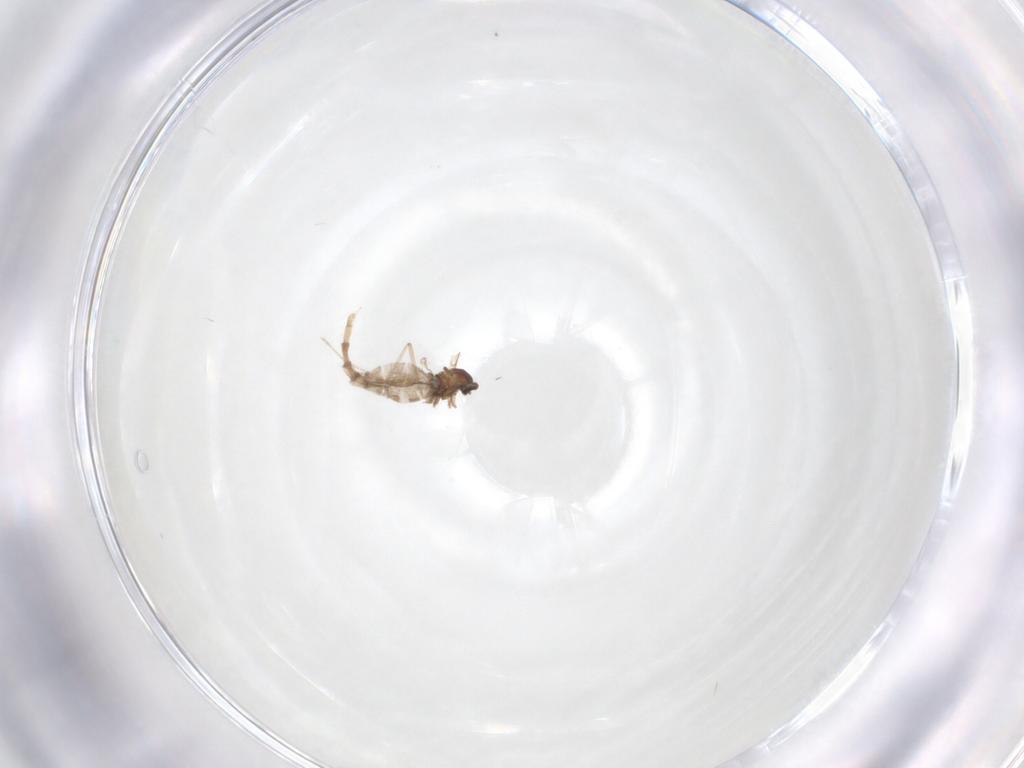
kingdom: Animalia
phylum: Arthropoda
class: Insecta
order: Diptera
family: Cecidomyiidae
